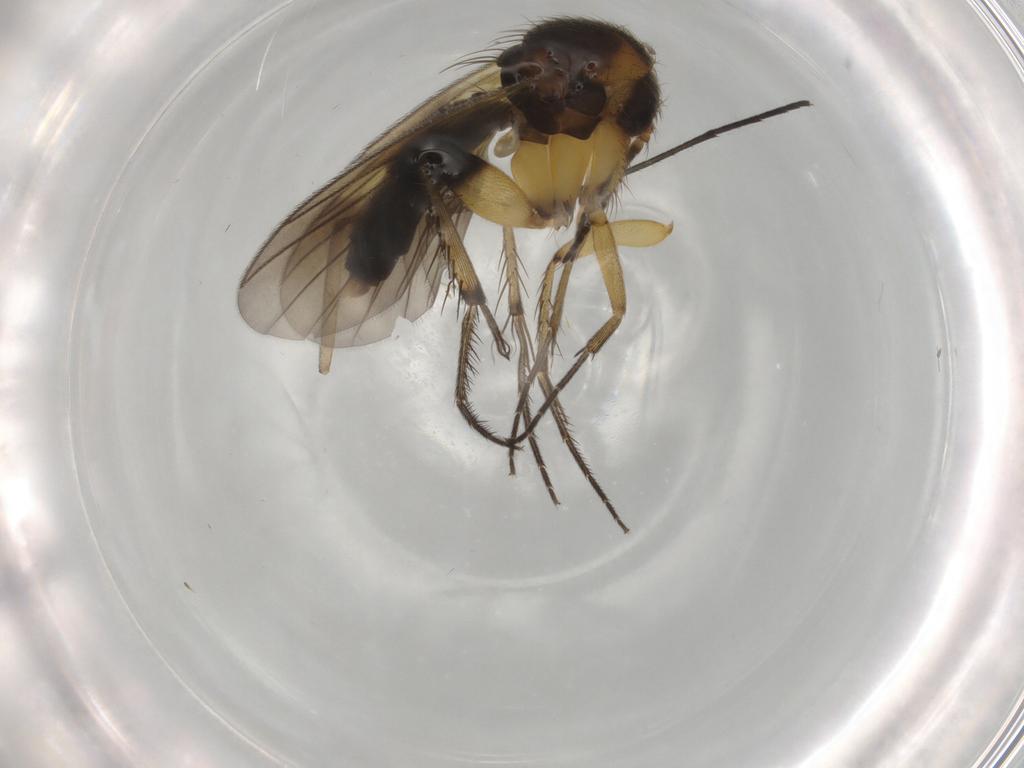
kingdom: Animalia
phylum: Arthropoda
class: Insecta
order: Diptera
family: Mycetophilidae
